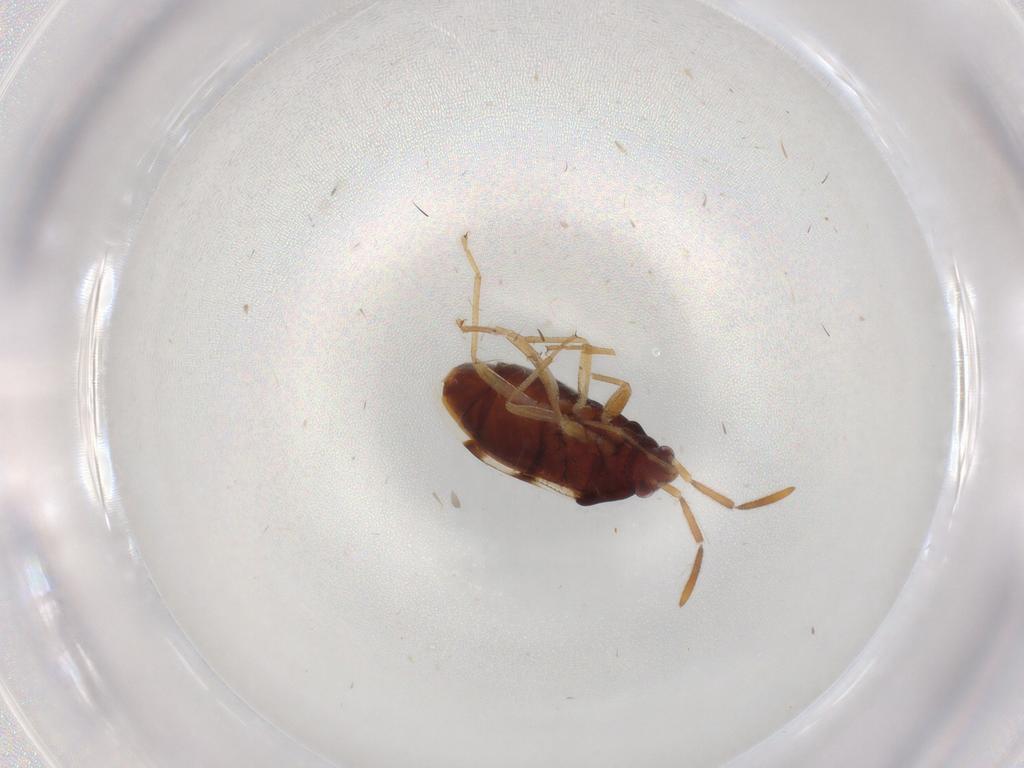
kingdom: Animalia
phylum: Arthropoda
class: Insecta
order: Hemiptera
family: Rhyparochromidae
